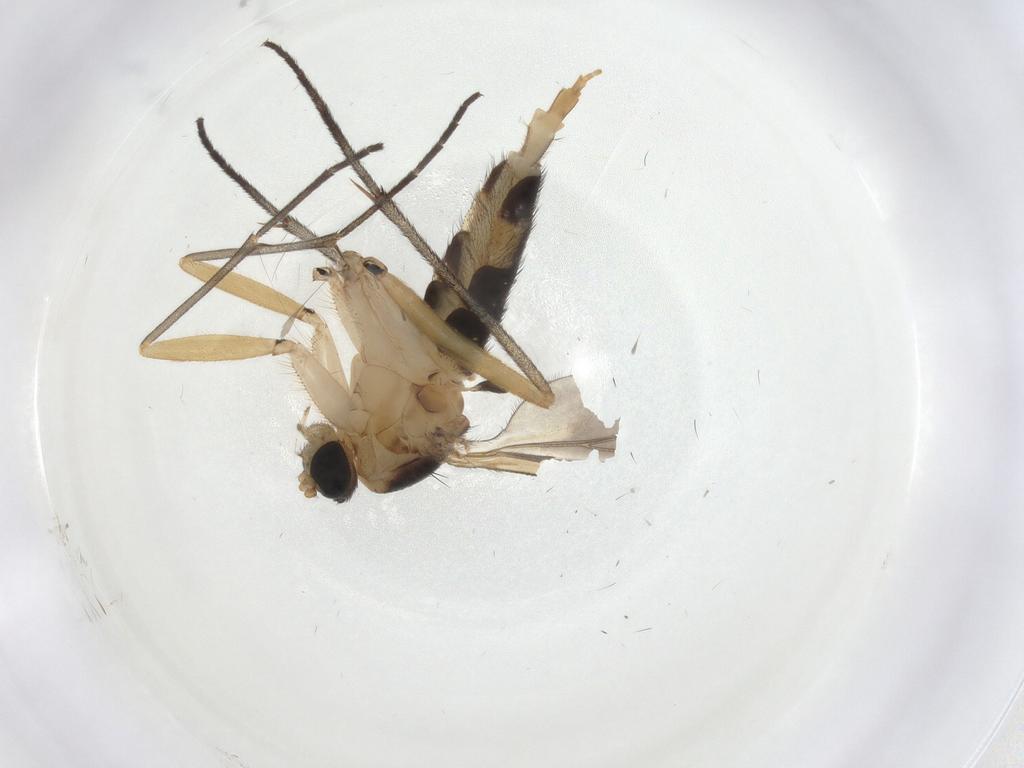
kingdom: Animalia
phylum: Arthropoda
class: Insecta
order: Diptera
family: Sciaridae
